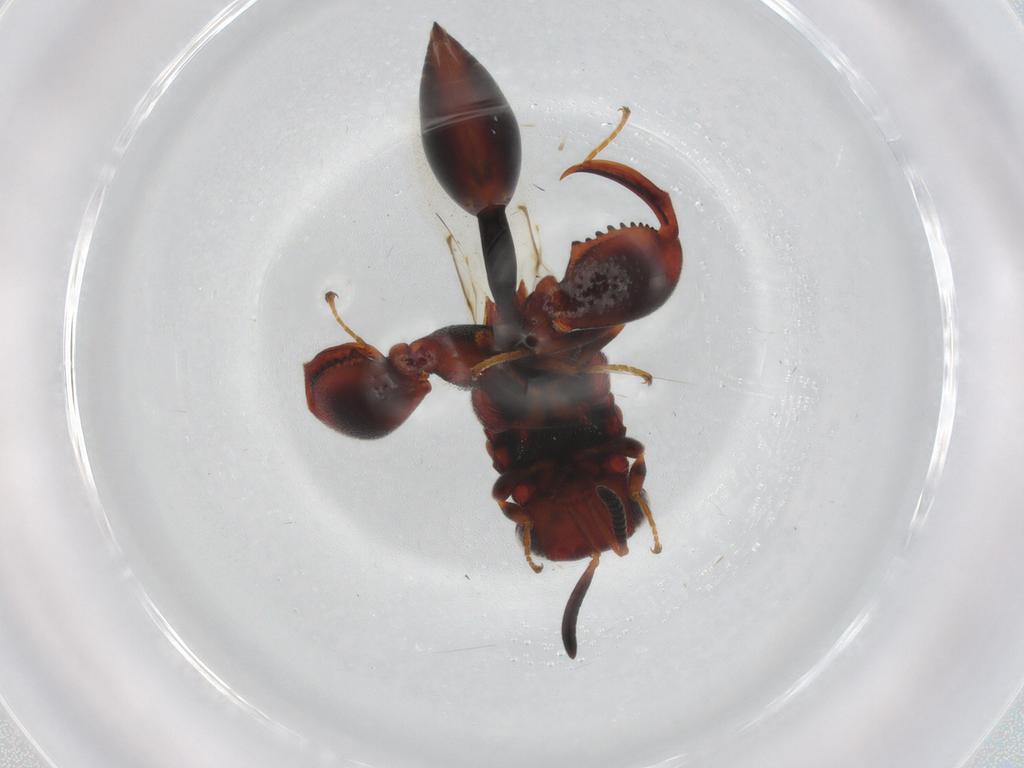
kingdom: Animalia
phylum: Arthropoda
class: Insecta
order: Hymenoptera
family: Chalcididae
